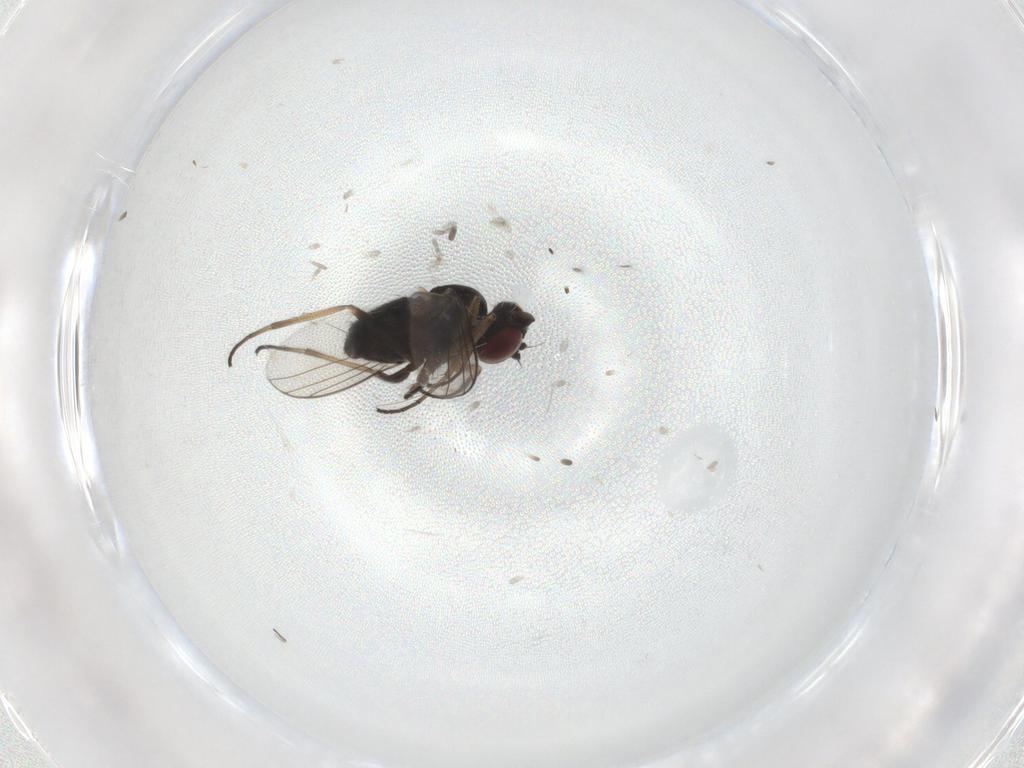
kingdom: Animalia
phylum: Arthropoda
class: Insecta
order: Diptera
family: Dolichopodidae
